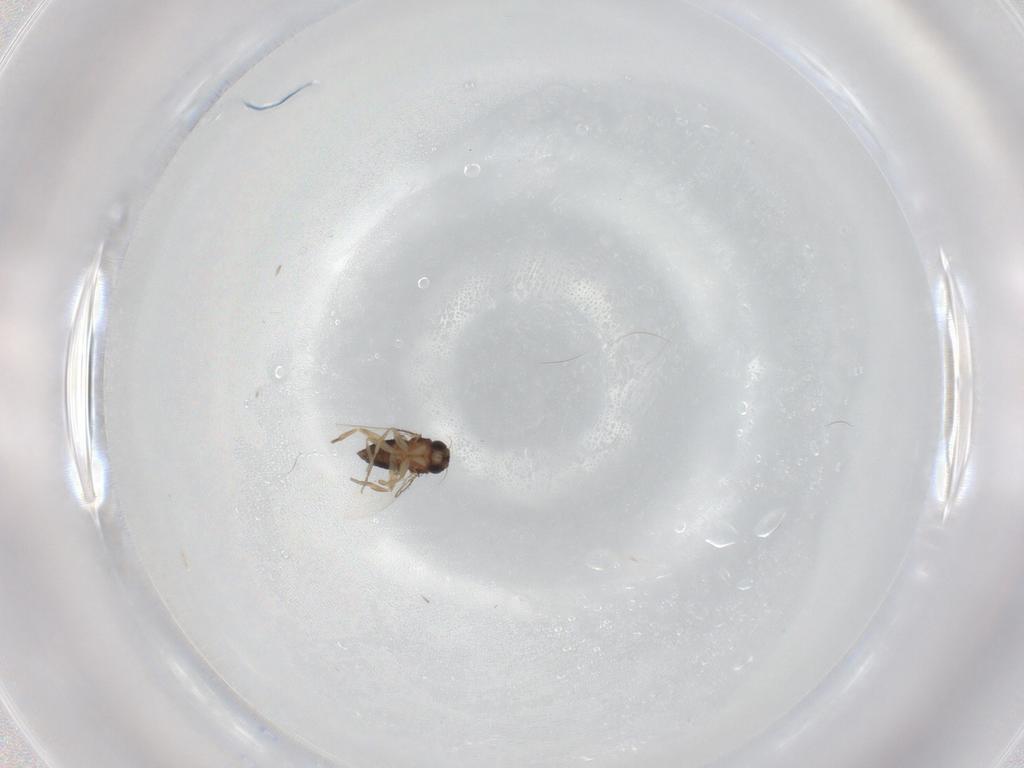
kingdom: Animalia
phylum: Arthropoda
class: Insecta
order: Diptera
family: Phoridae
